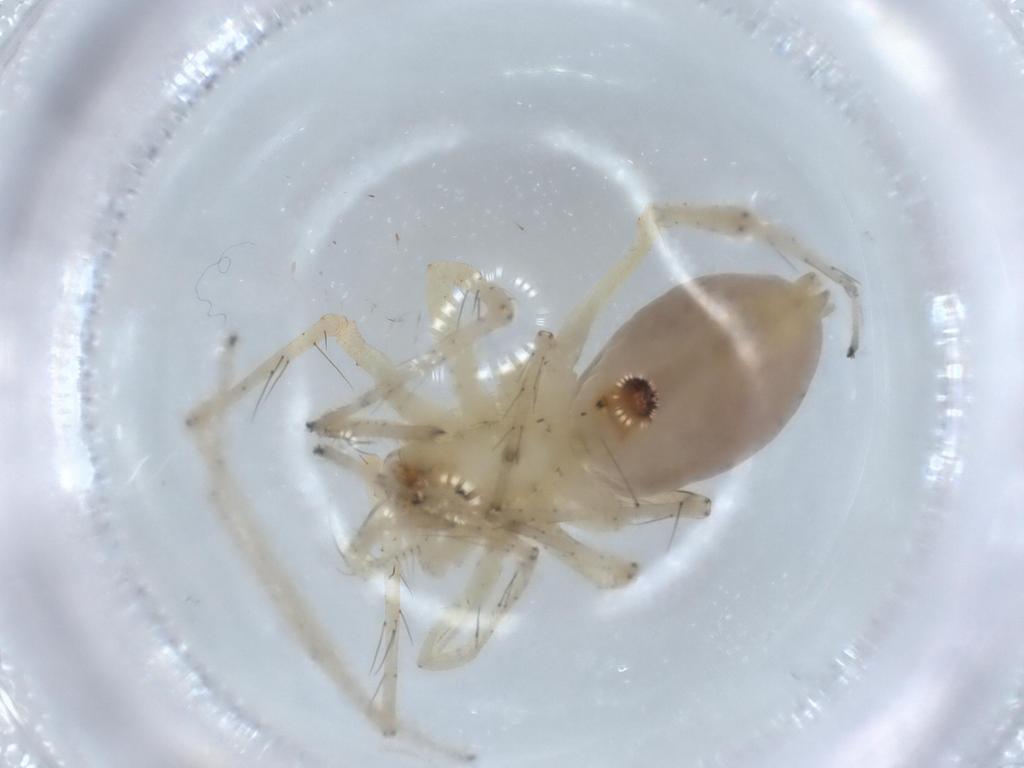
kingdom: Animalia
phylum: Arthropoda
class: Arachnida
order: Araneae
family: Anyphaenidae
